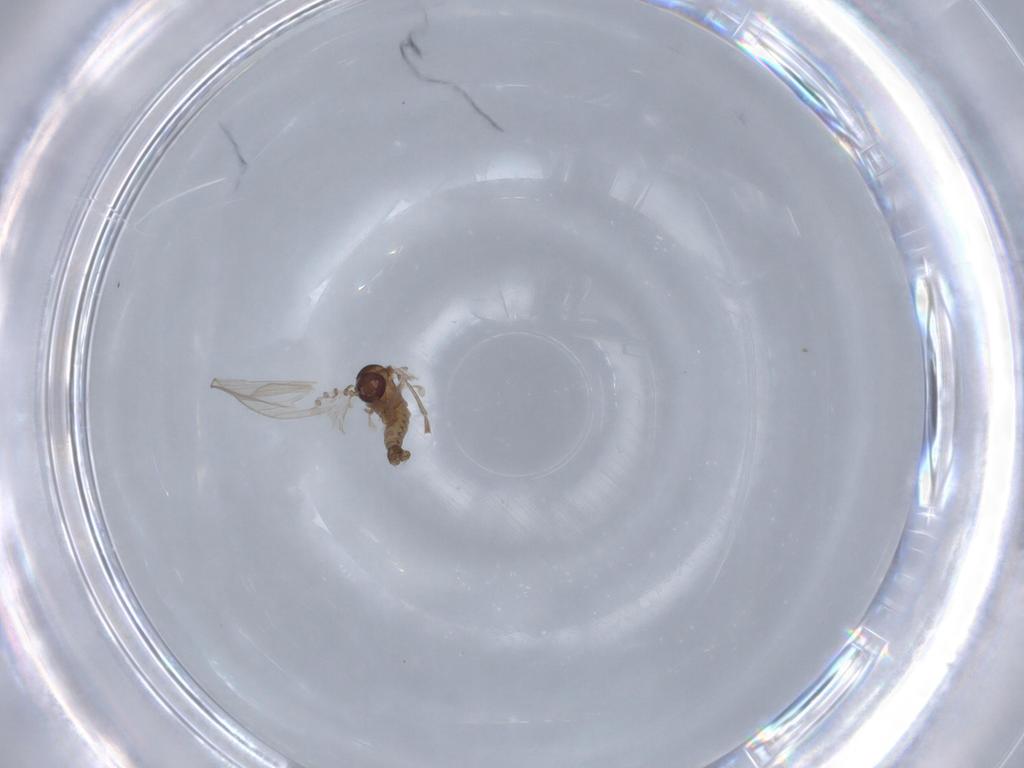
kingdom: Animalia
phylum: Arthropoda
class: Insecta
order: Diptera
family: Psychodidae
